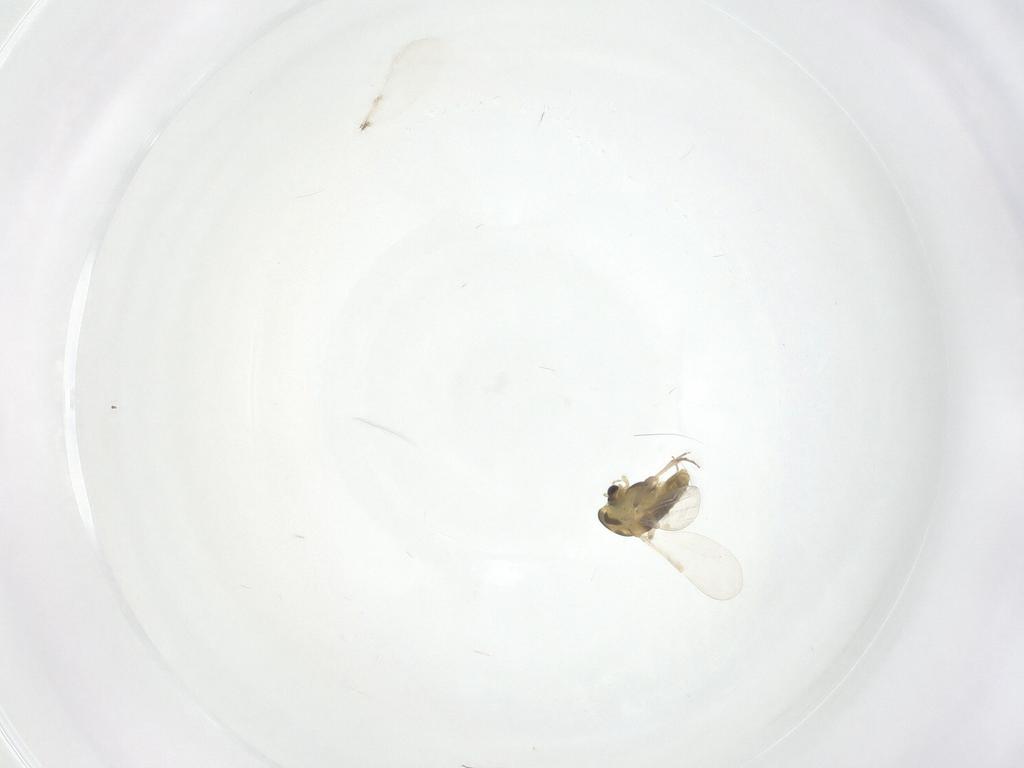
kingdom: Animalia
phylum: Arthropoda
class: Insecta
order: Diptera
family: Chironomidae
